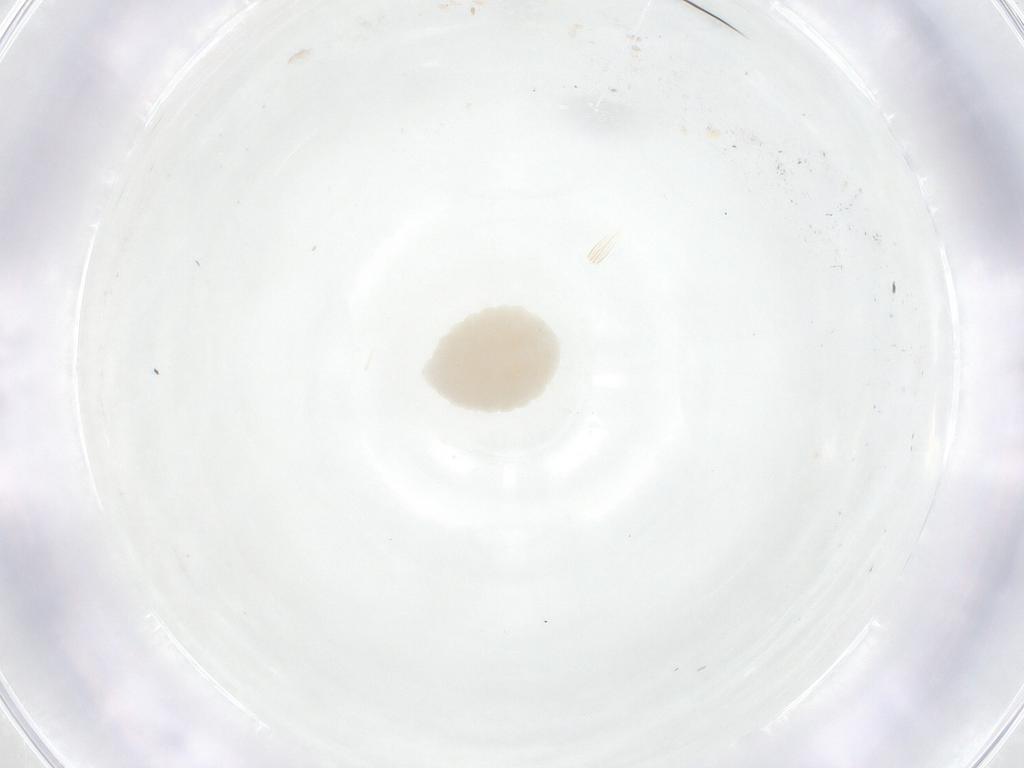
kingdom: Animalia
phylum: Arthropoda
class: Insecta
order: Diptera
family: Fergusoninidae
